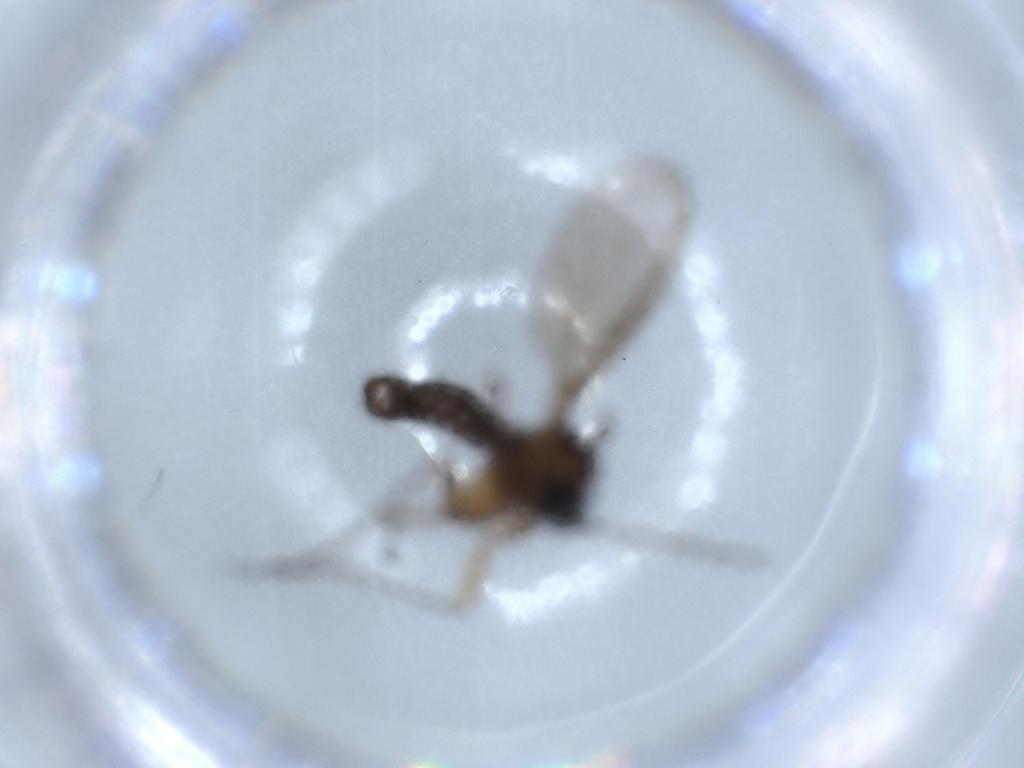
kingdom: Animalia
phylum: Arthropoda
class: Insecta
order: Diptera
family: Sciaridae
